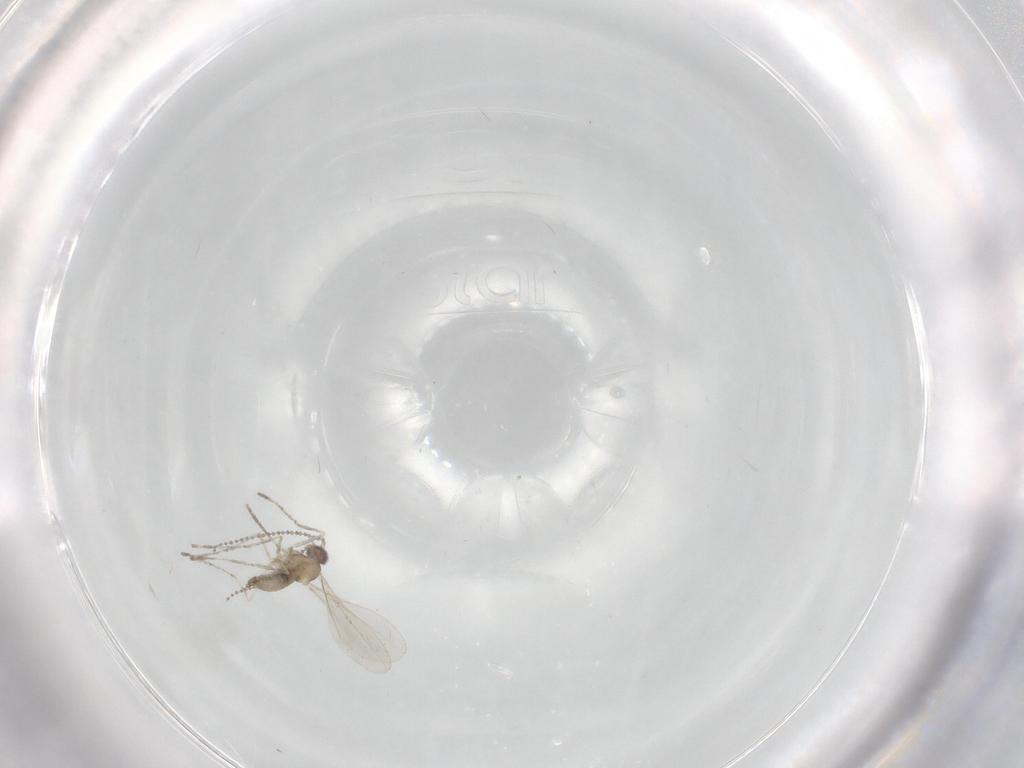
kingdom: Animalia
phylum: Arthropoda
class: Insecta
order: Diptera
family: Cecidomyiidae
